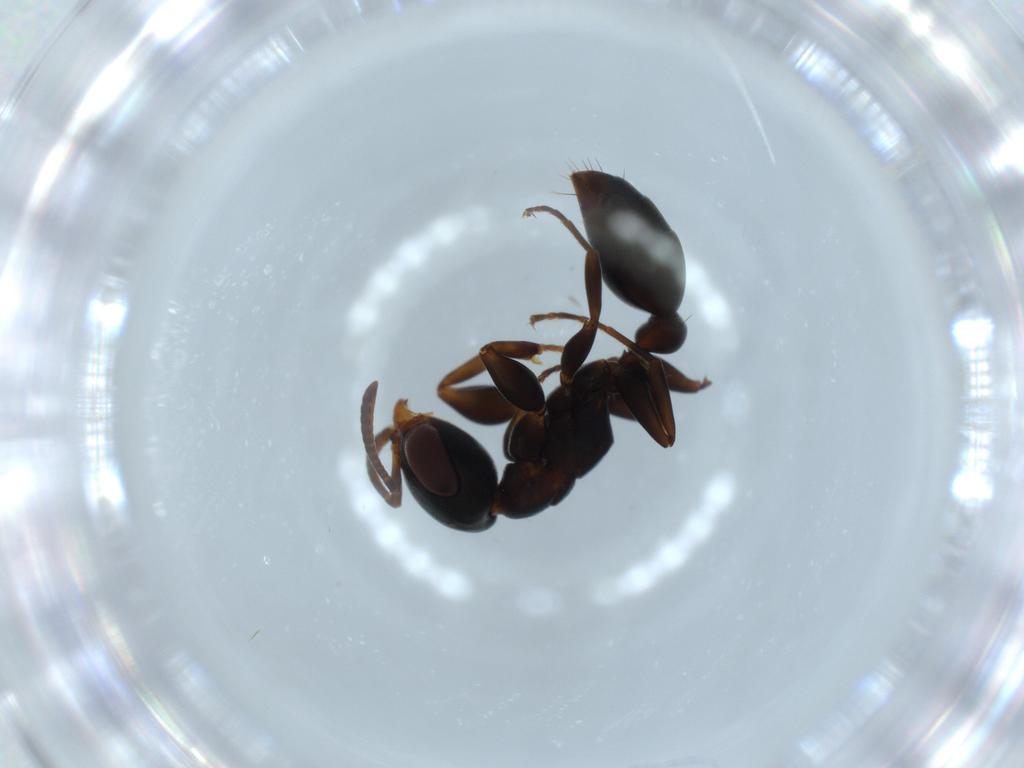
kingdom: Animalia
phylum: Arthropoda
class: Insecta
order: Hymenoptera
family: Formicidae
